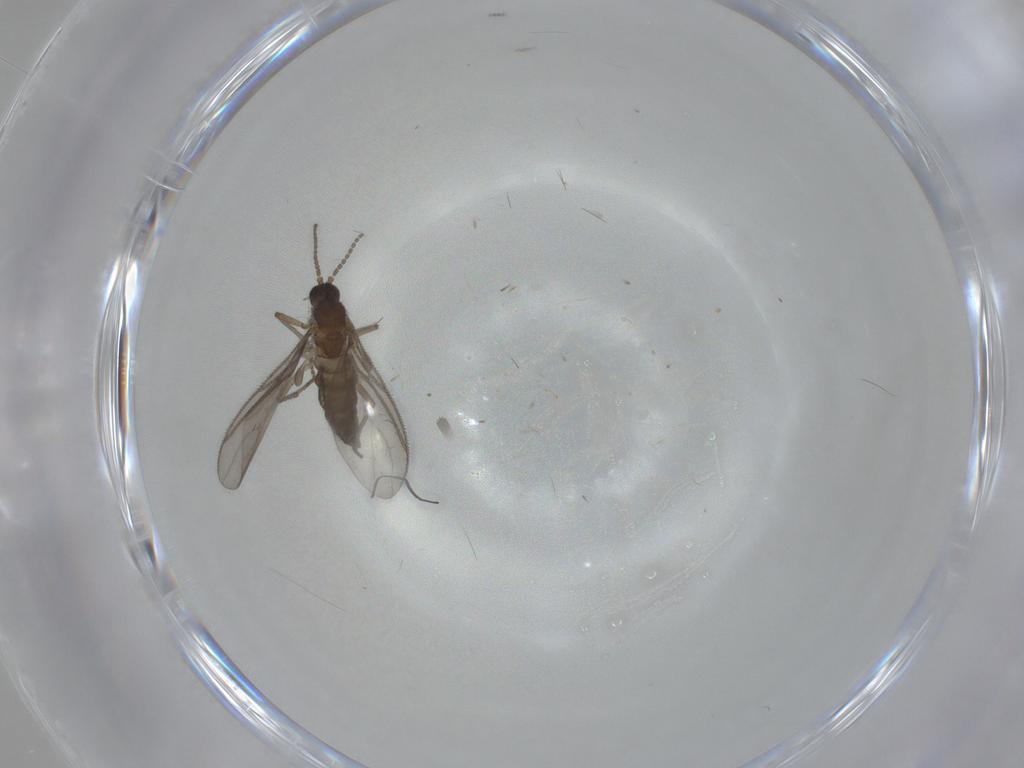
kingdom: Animalia
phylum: Arthropoda
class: Insecta
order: Diptera
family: Sciaridae
